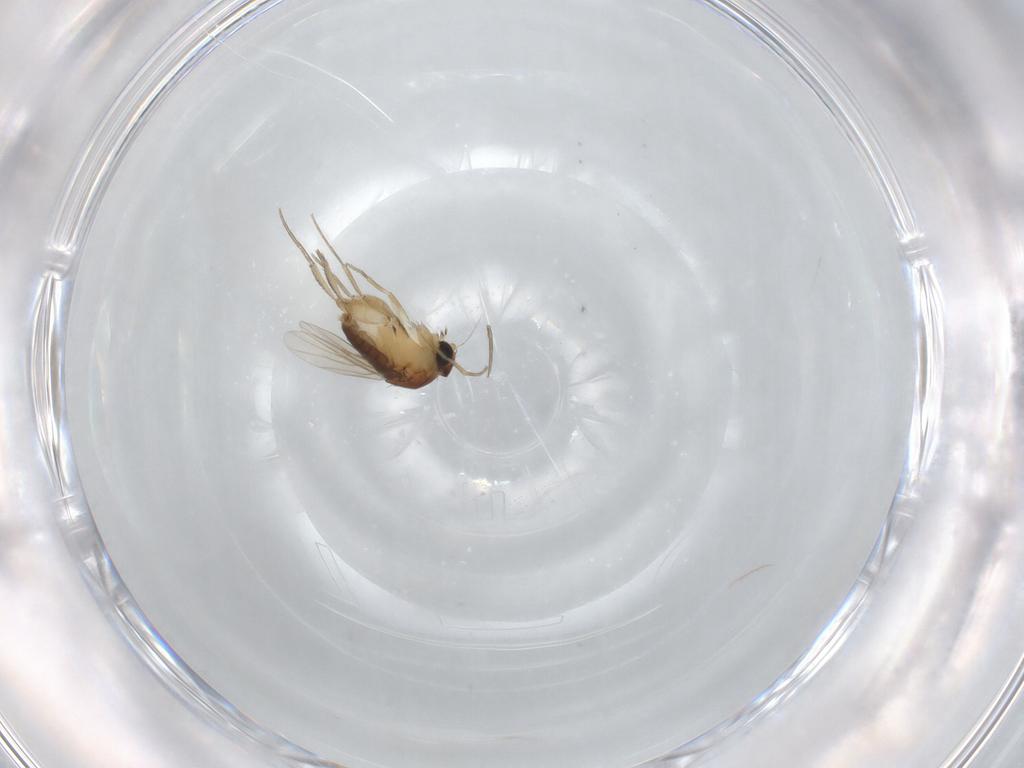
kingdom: Animalia
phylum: Arthropoda
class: Insecta
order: Diptera
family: Phoridae
